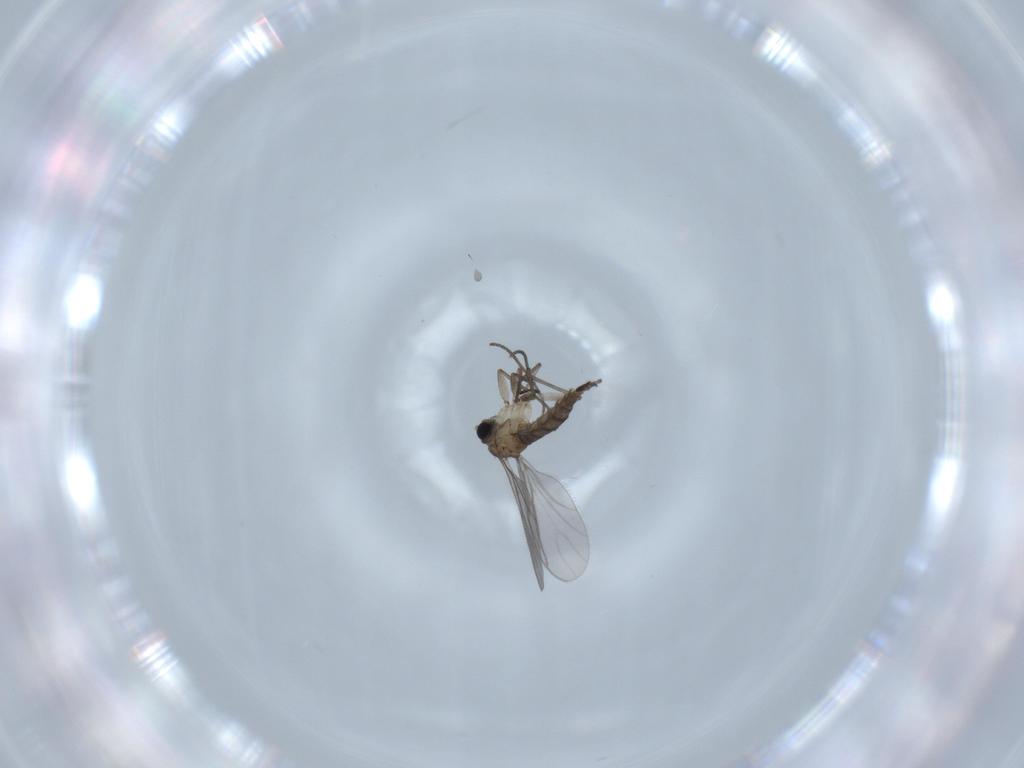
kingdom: Animalia
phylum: Arthropoda
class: Insecta
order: Diptera
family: Sciaridae
